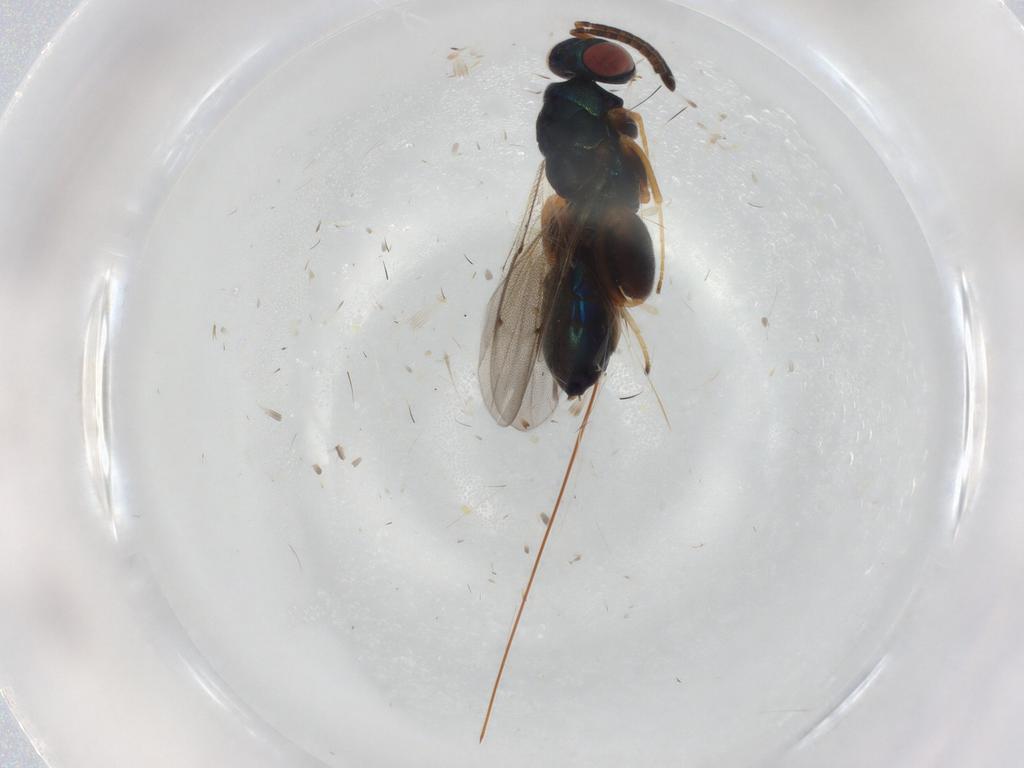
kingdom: Animalia
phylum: Arthropoda
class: Insecta
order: Hymenoptera
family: Torymidae
